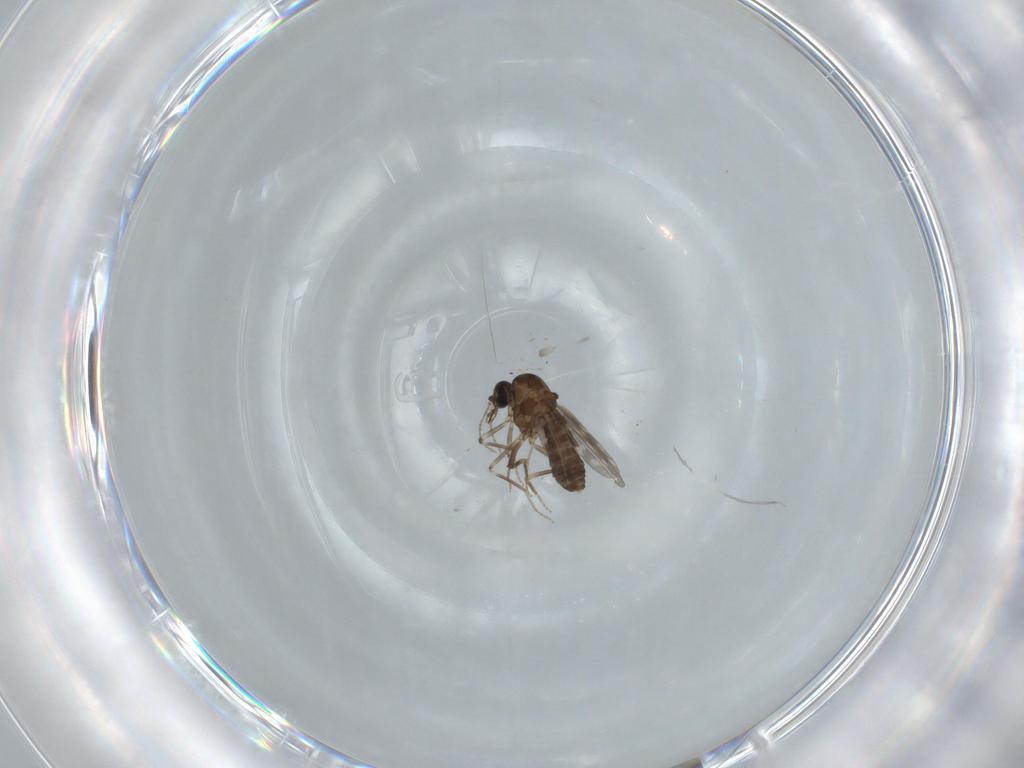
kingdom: Animalia
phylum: Arthropoda
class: Insecta
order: Diptera
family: Ceratopogonidae
